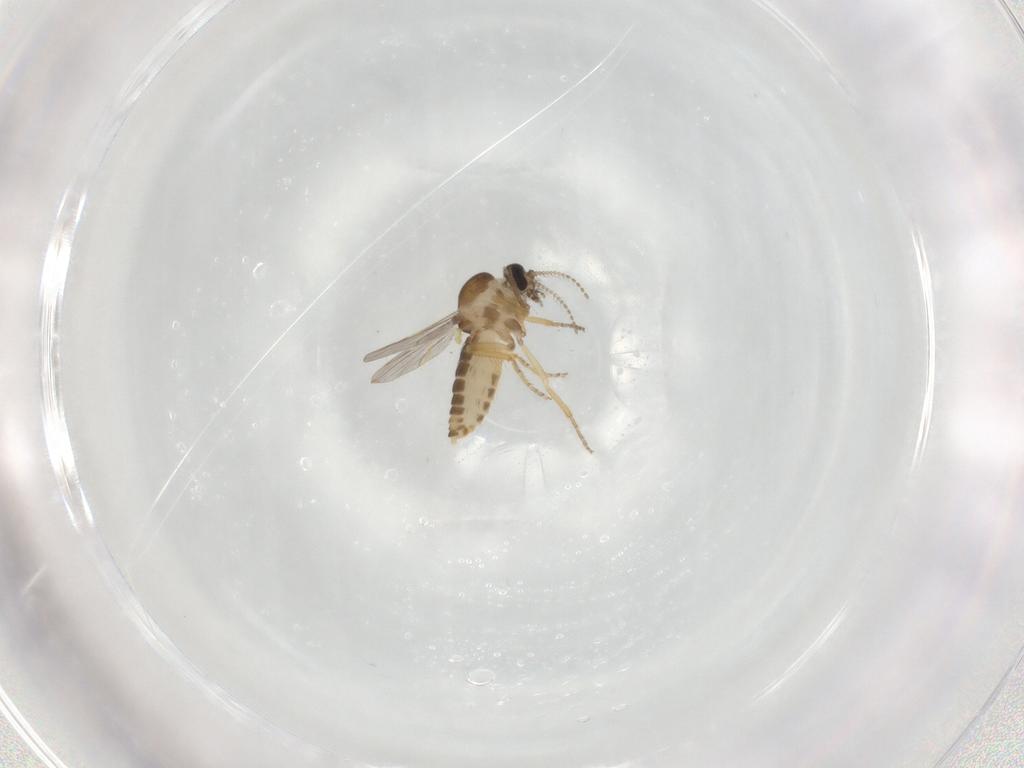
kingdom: Animalia
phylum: Arthropoda
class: Insecta
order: Diptera
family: Ceratopogonidae
